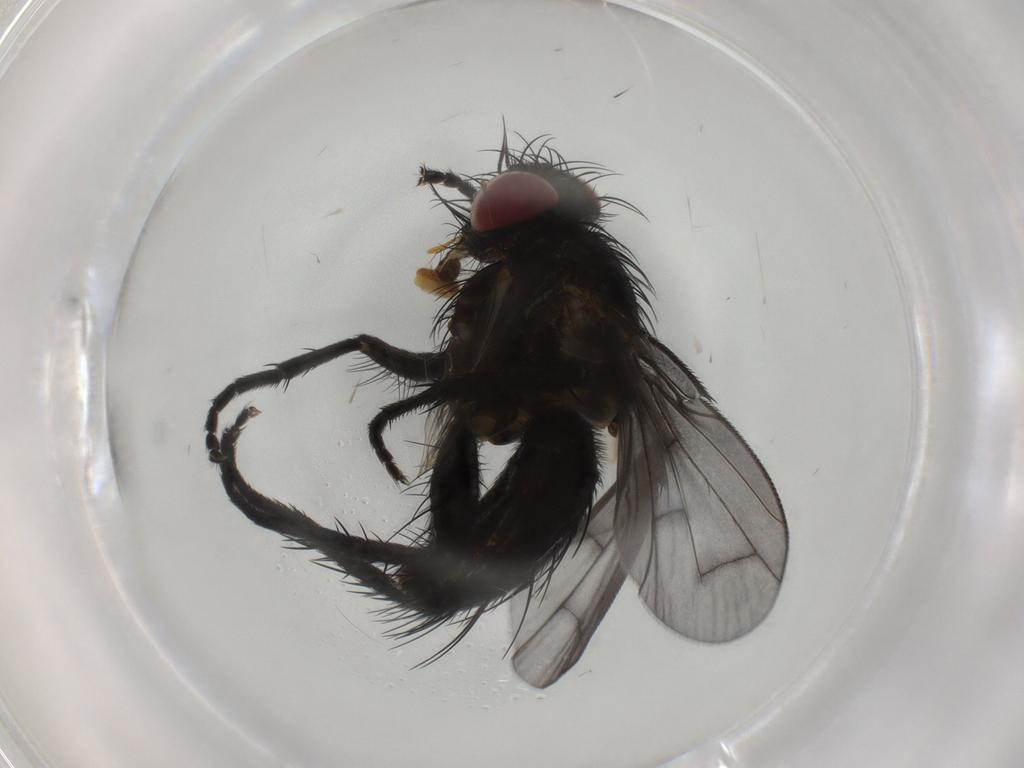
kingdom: Animalia
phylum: Arthropoda
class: Insecta
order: Diptera
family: Tachinidae
